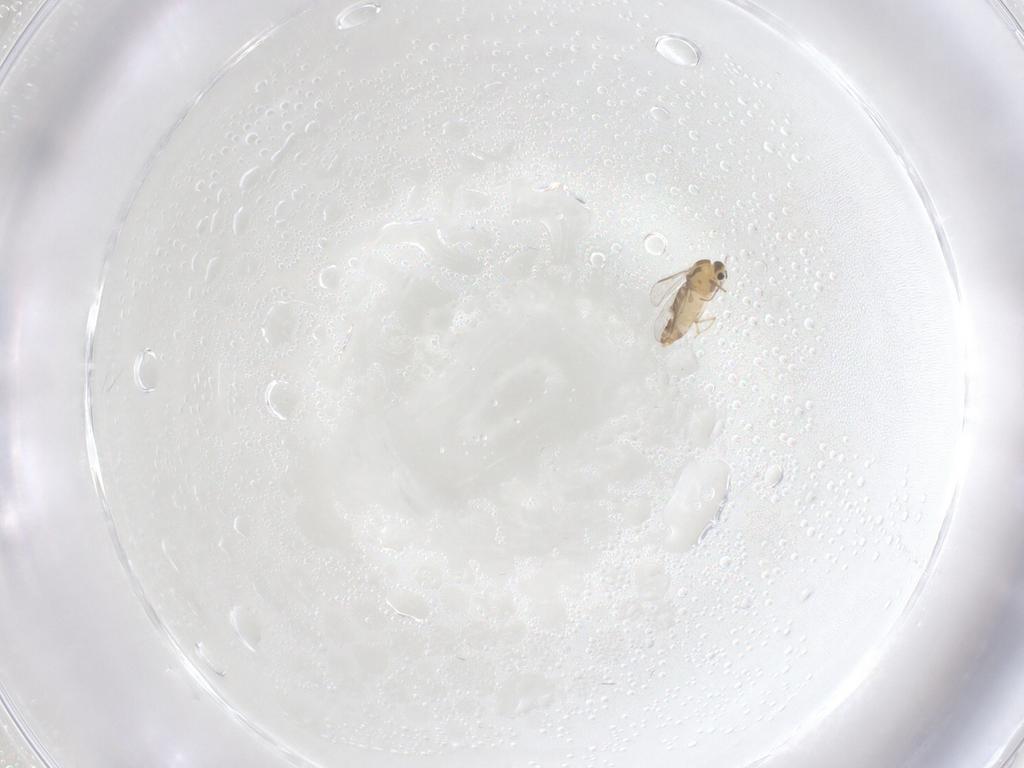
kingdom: Animalia
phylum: Arthropoda
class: Insecta
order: Diptera
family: Chironomidae
